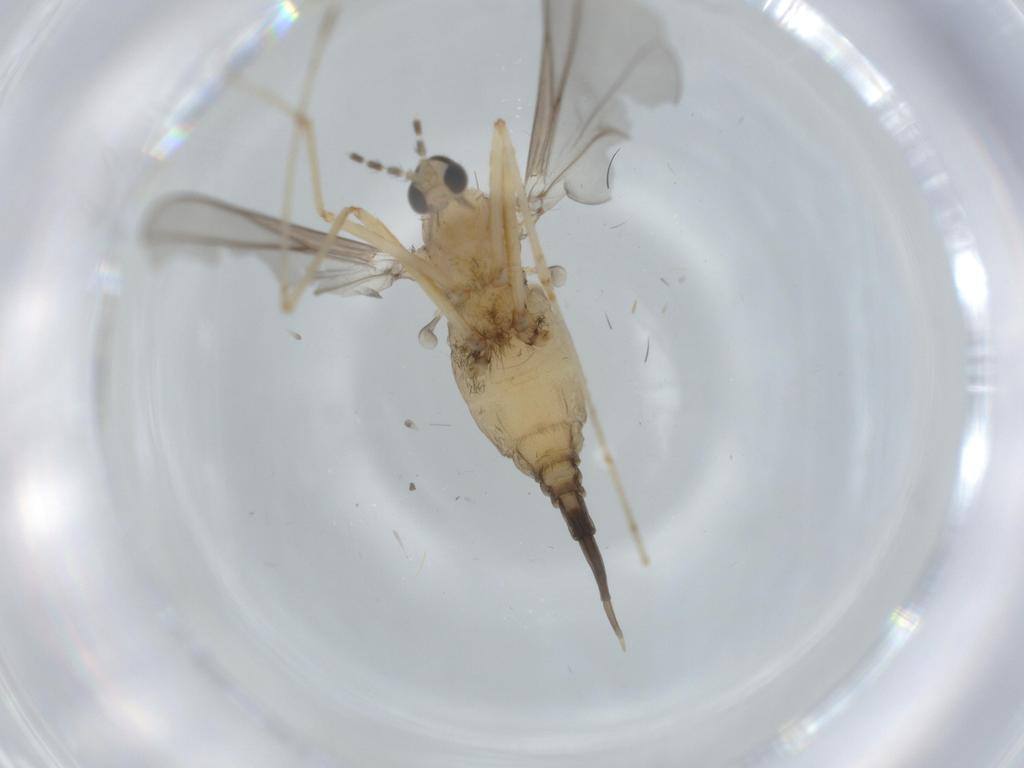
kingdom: Animalia
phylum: Arthropoda
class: Insecta
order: Diptera
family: Cecidomyiidae
